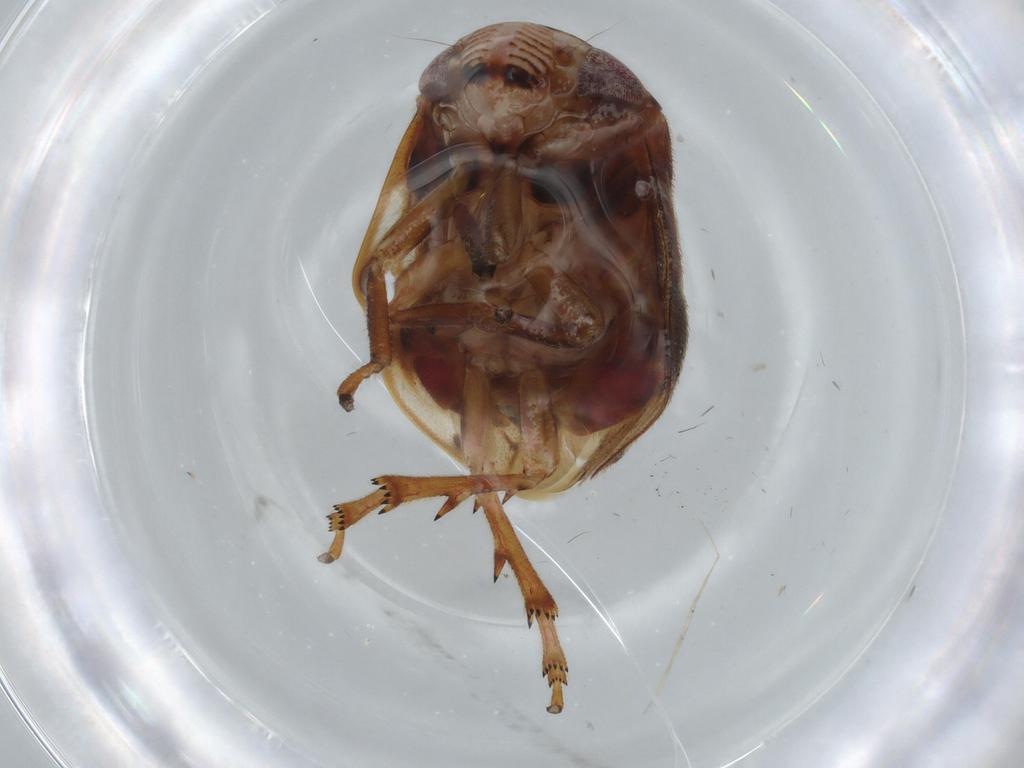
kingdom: Animalia
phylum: Arthropoda
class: Insecta
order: Hemiptera
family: Clastopteridae
